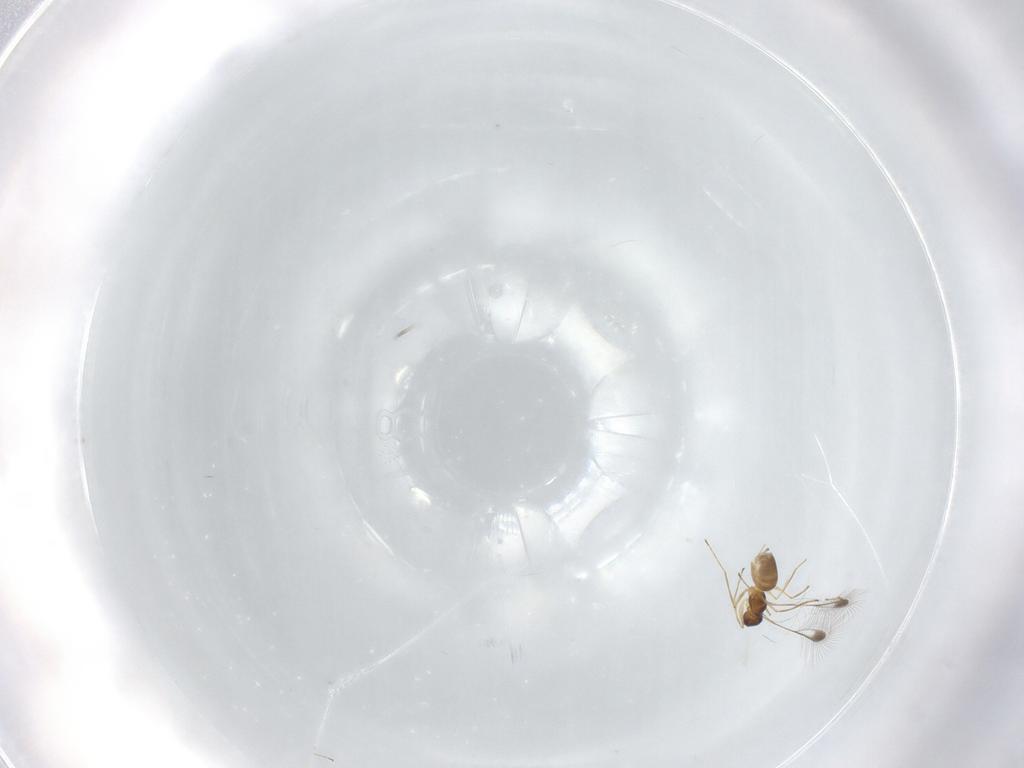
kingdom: Animalia
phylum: Arthropoda
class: Insecta
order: Hymenoptera
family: Mymaridae
